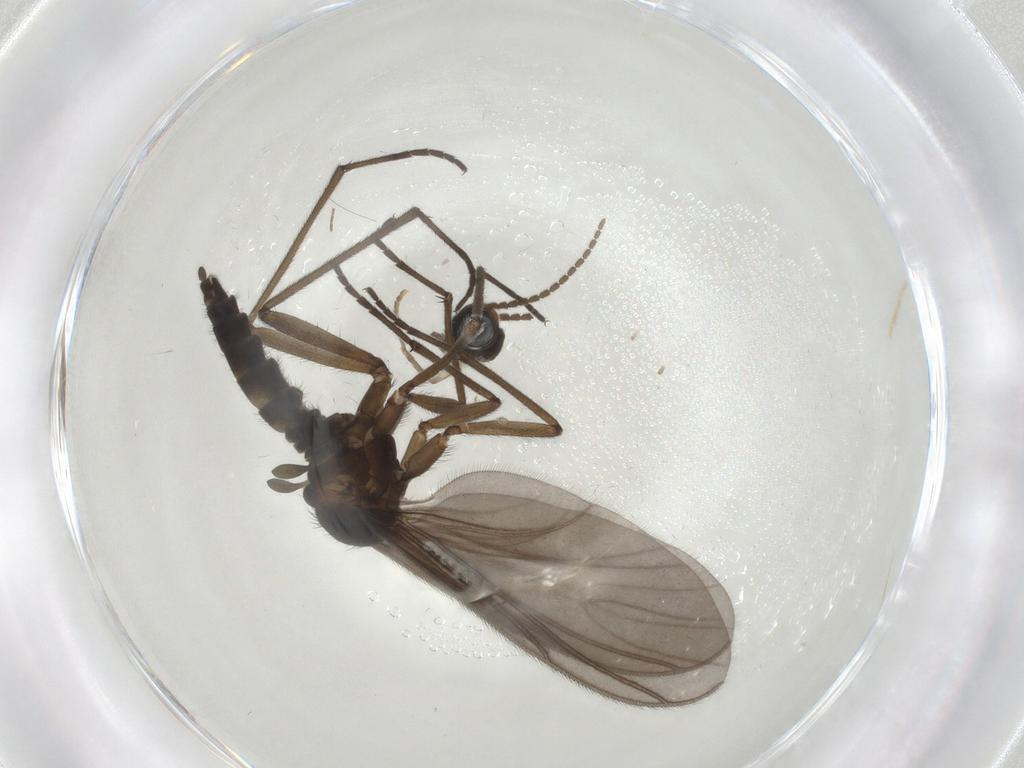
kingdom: Animalia
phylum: Arthropoda
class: Insecta
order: Diptera
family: Sciaridae
